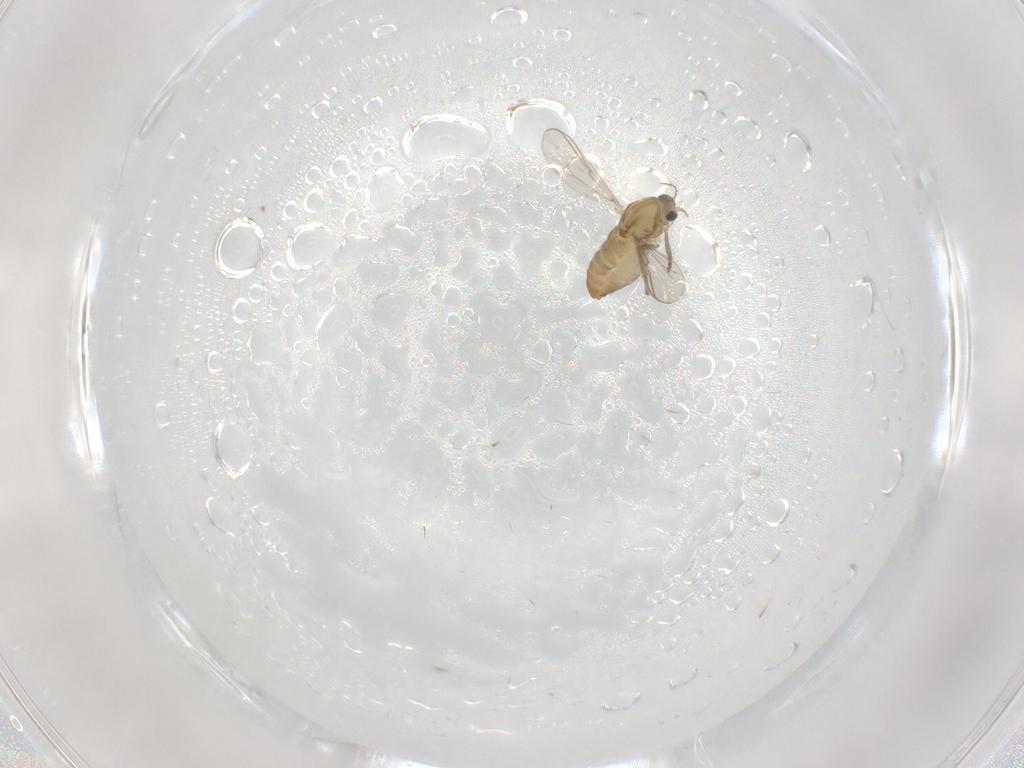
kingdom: Animalia
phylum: Arthropoda
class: Insecta
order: Diptera
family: Chironomidae
